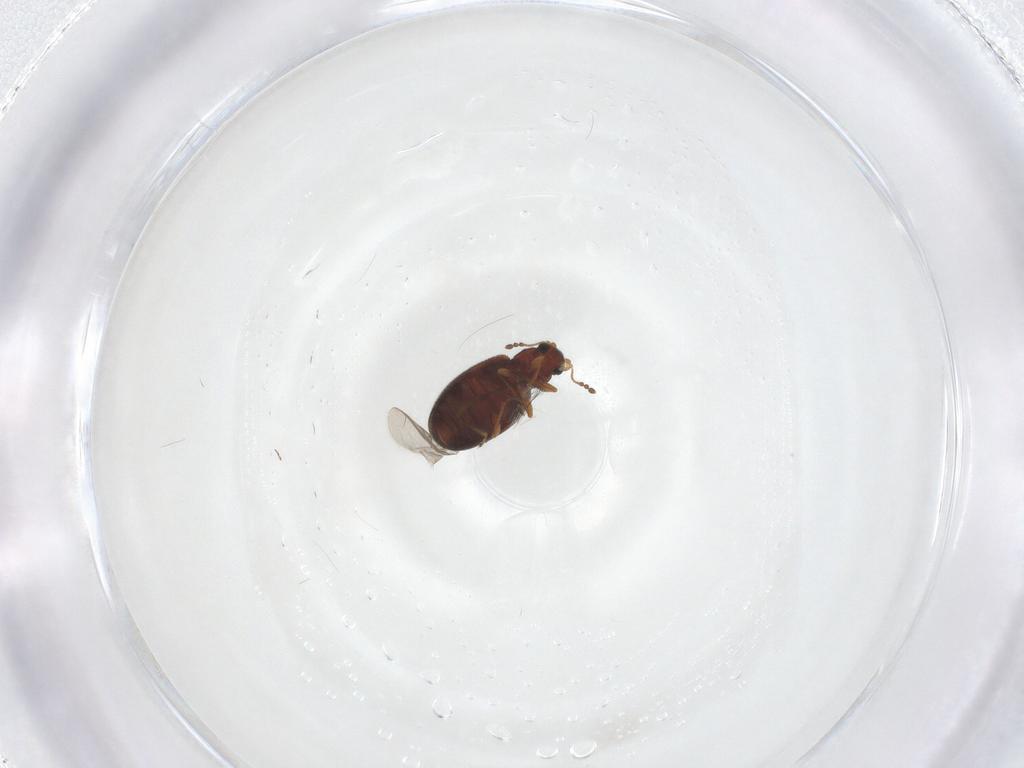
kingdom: Animalia
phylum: Arthropoda
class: Insecta
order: Coleoptera
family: Latridiidae
